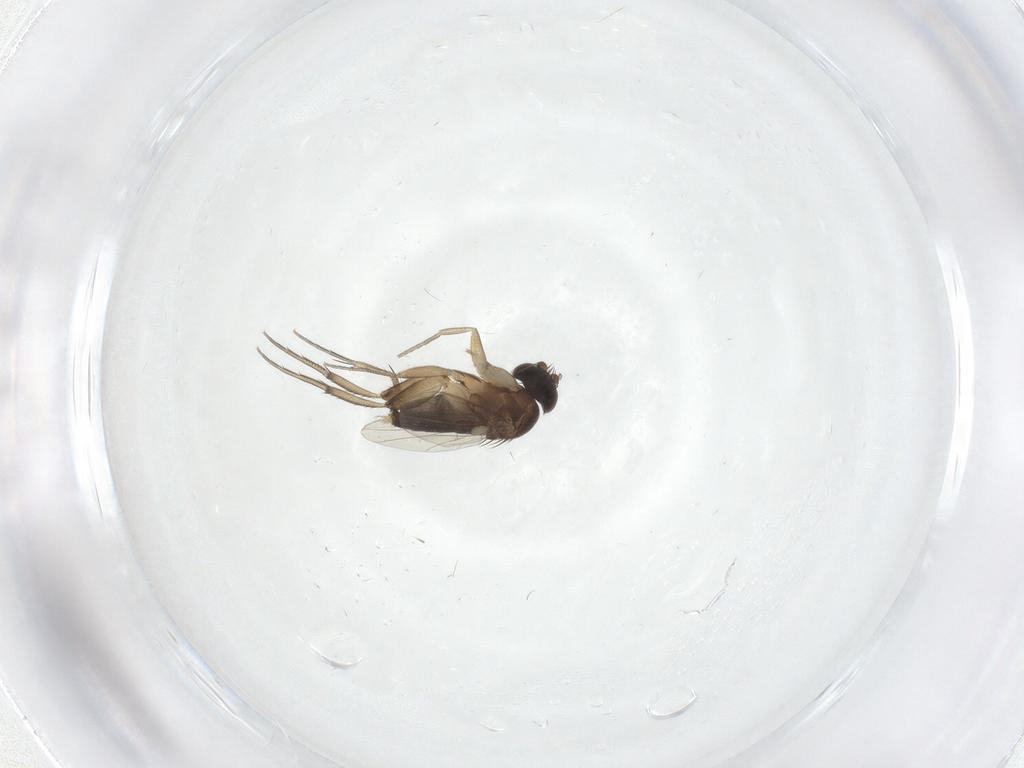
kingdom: Animalia
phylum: Arthropoda
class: Insecta
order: Diptera
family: Phoridae
